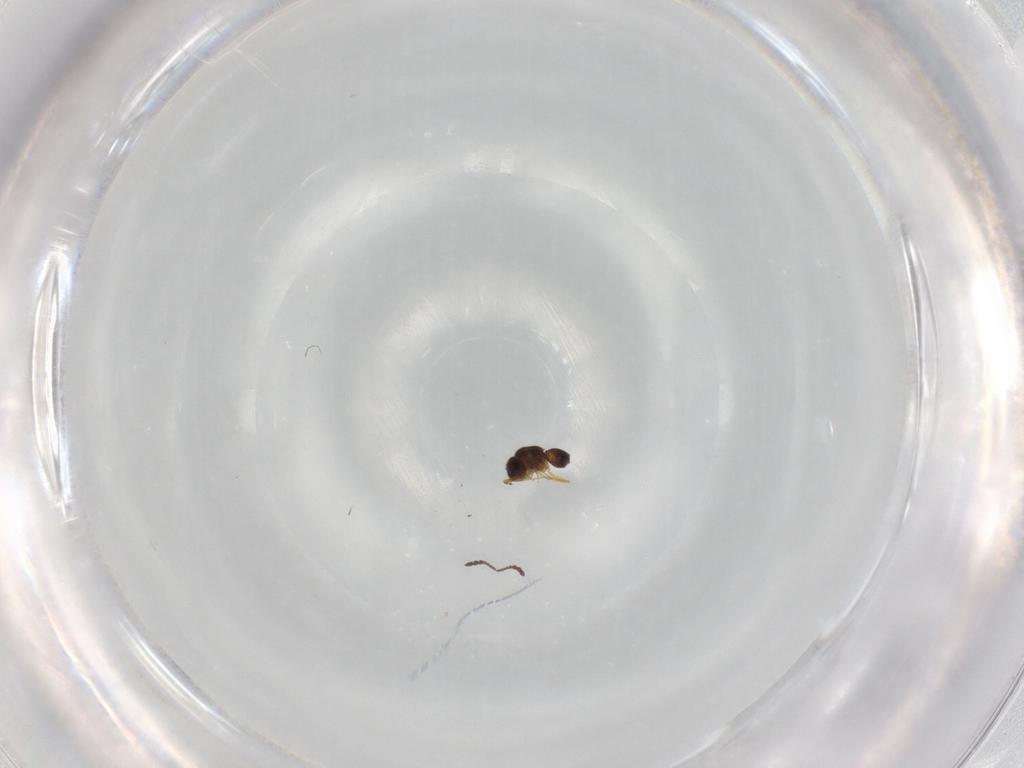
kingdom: Animalia
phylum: Arthropoda
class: Insecta
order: Hymenoptera
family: Ceraphronidae
